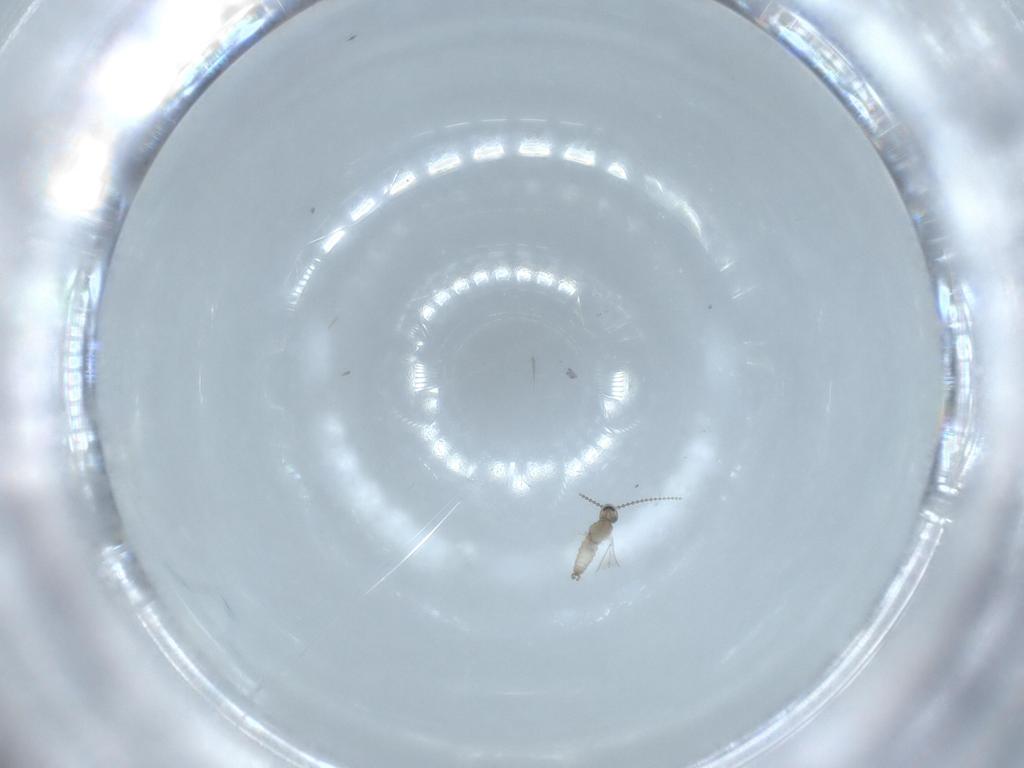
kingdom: Animalia
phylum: Arthropoda
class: Insecta
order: Diptera
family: Cecidomyiidae
